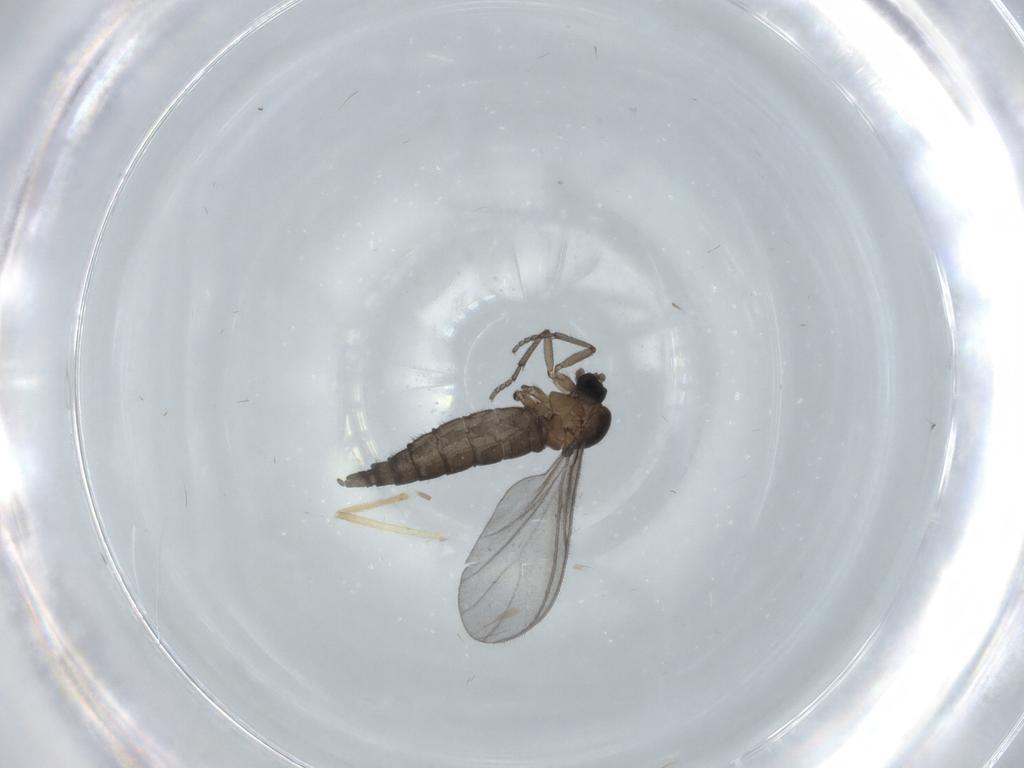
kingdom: Animalia
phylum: Arthropoda
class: Insecta
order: Diptera
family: Sciaridae
